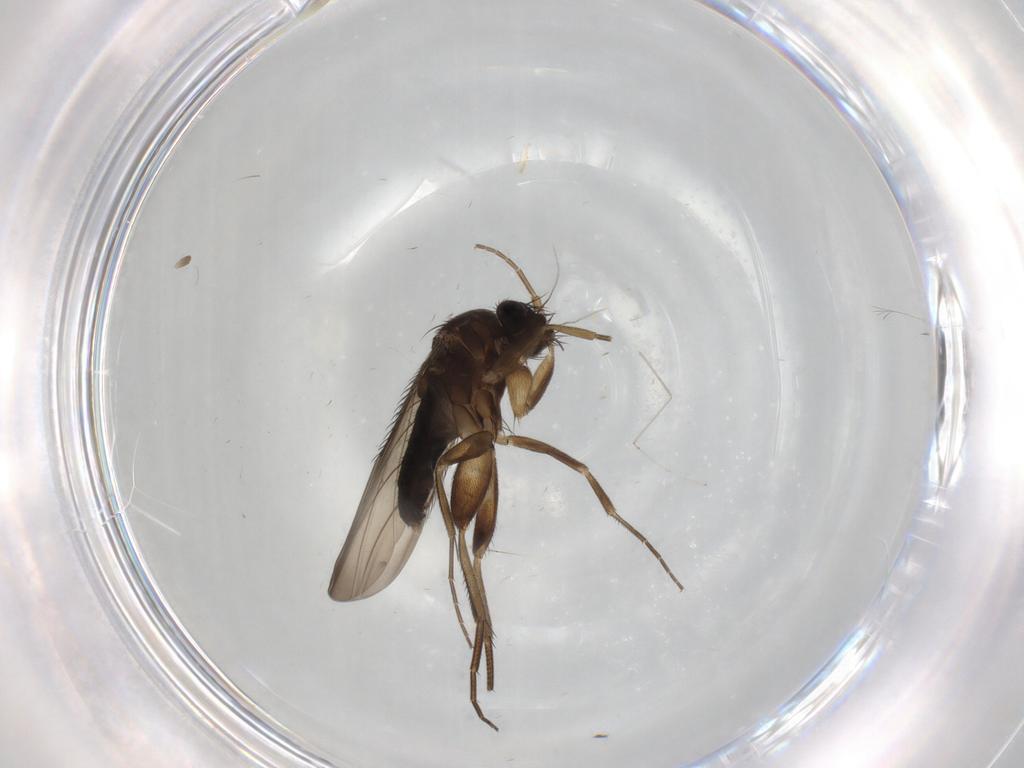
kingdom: Animalia
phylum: Arthropoda
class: Insecta
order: Diptera
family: Phoridae
